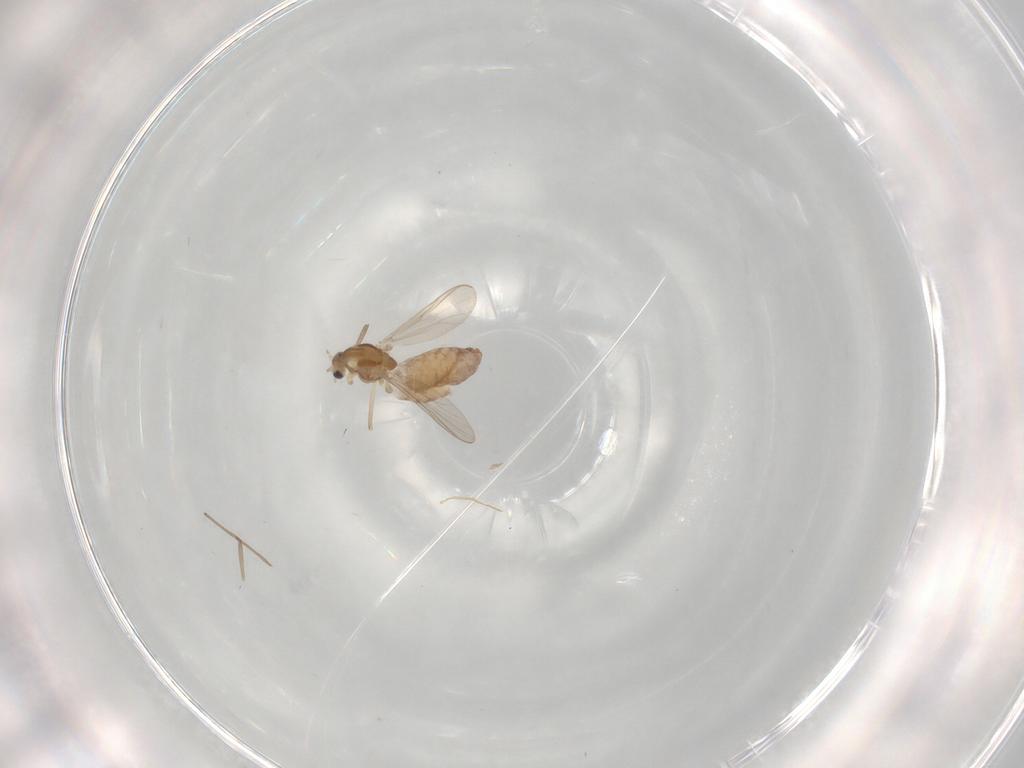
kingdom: Animalia
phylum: Arthropoda
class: Insecta
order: Diptera
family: Chironomidae
